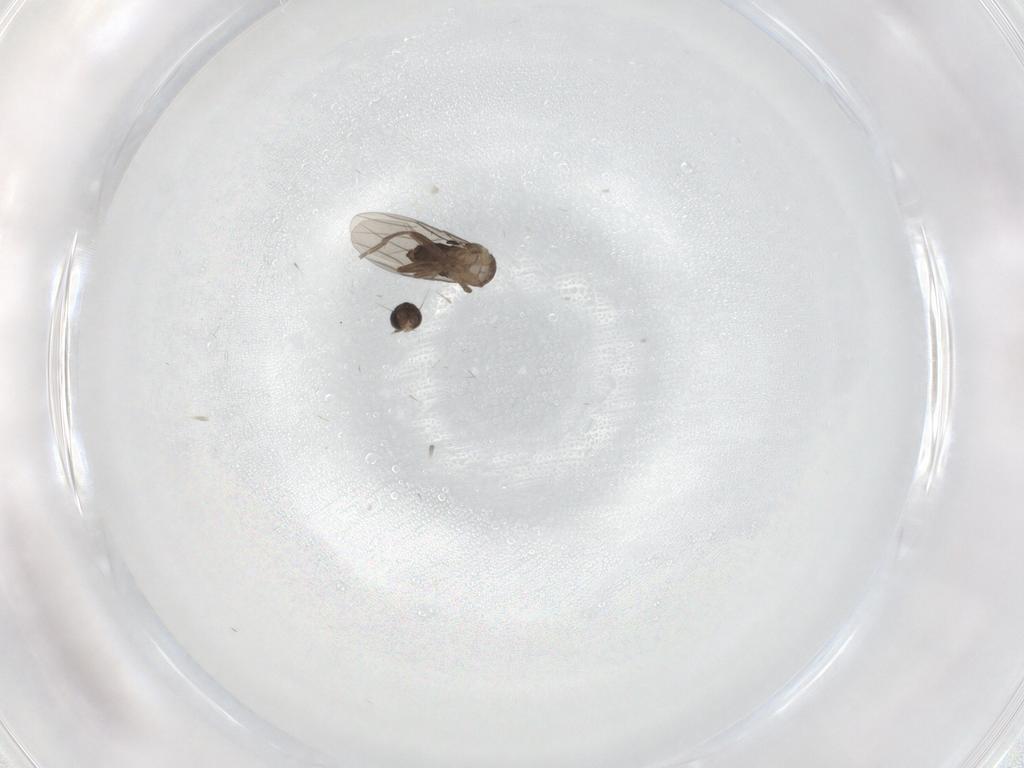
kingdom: Animalia
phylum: Arthropoda
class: Insecta
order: Diptera
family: Phoridae
